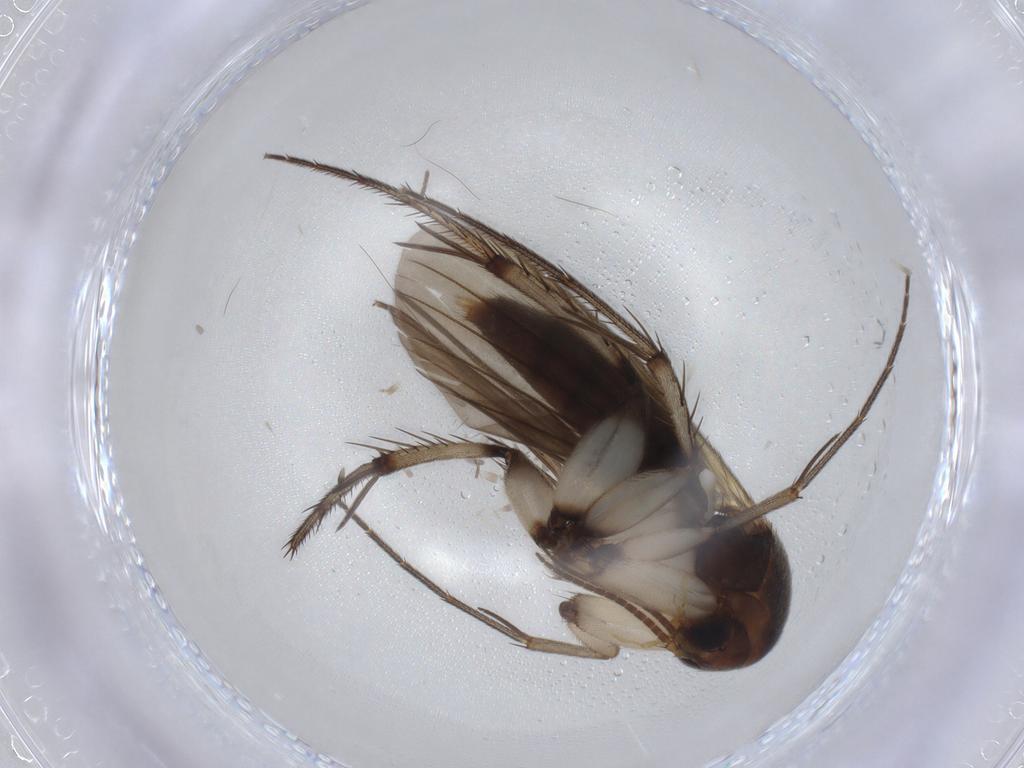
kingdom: Animalia
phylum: Arthropoda
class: Insecta
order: Diptera
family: Mycetophilidae
